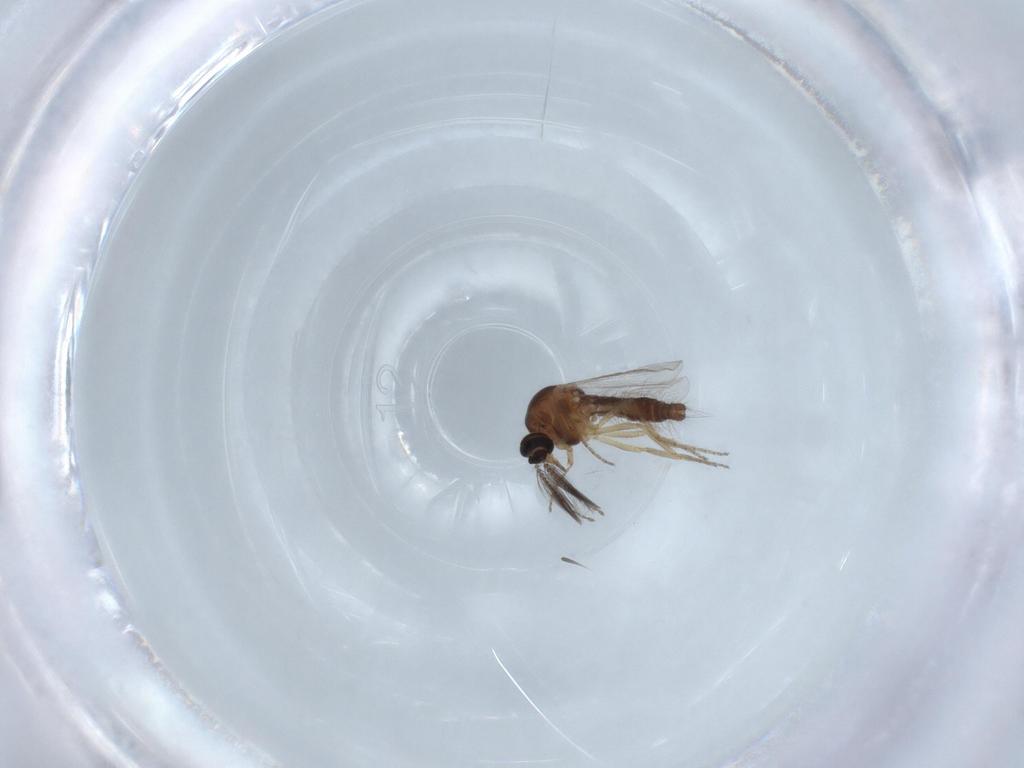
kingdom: Animalia
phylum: Arthropoda
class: Insecta
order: Diptera
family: Ceratopogonidae
